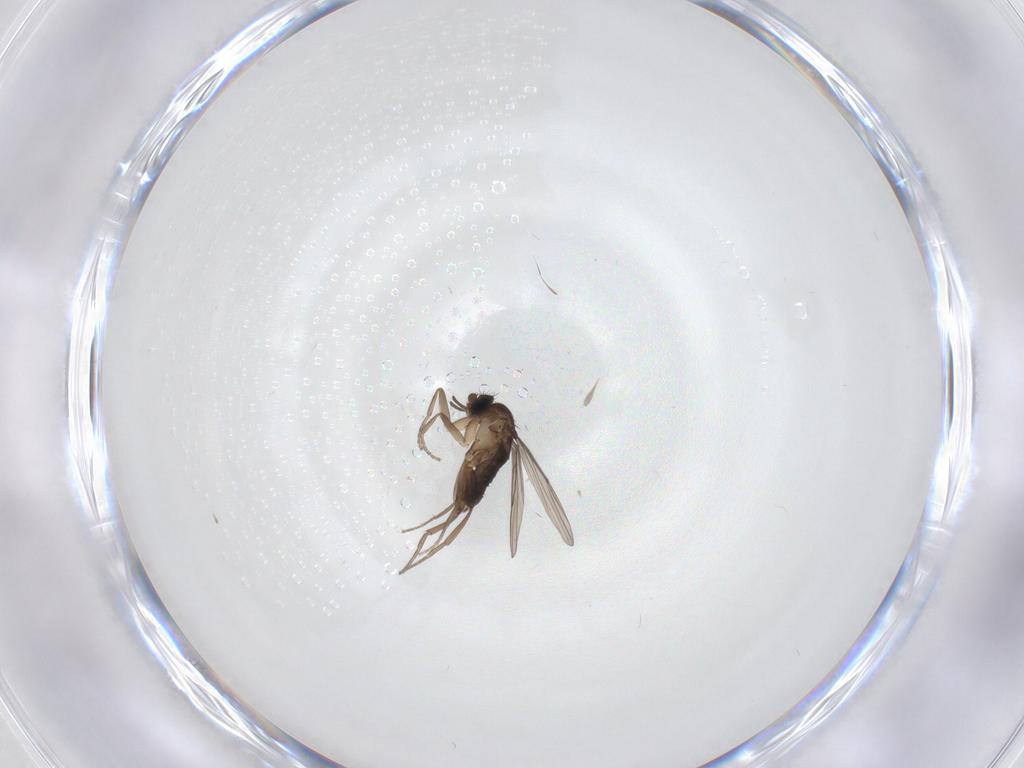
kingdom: Animalia
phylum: Arthropoda
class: Insecta
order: Diptera
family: Phoridae
